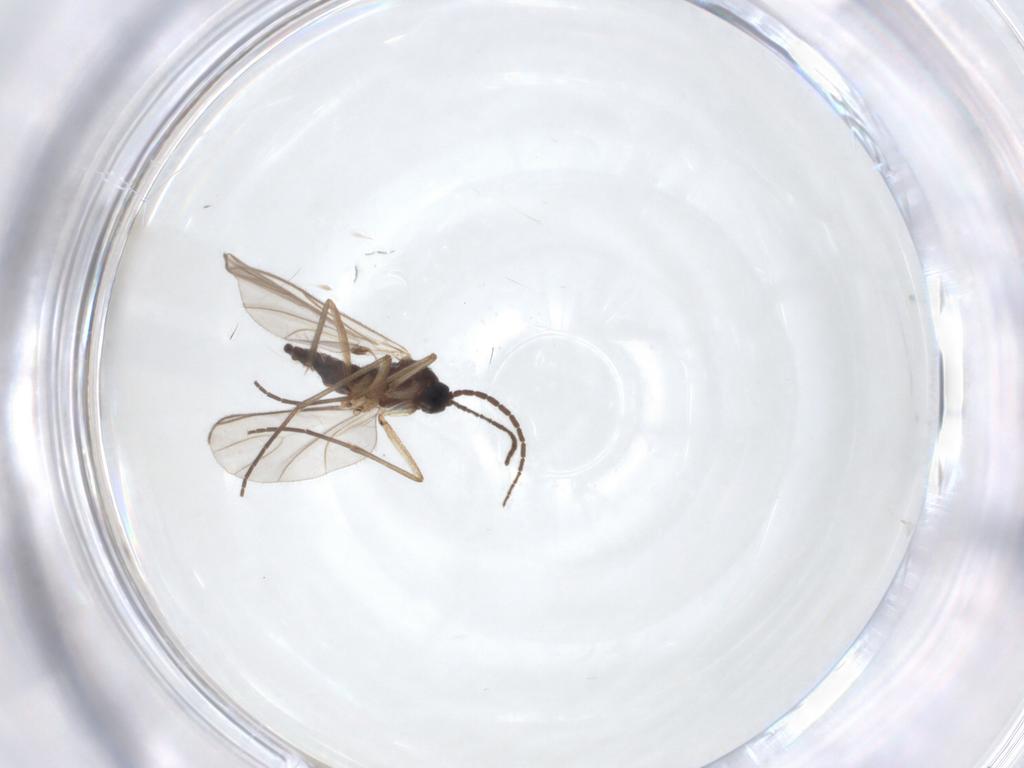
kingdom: Animalia
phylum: Arthropoda
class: Insecta
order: Diptera
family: Sciaridae
